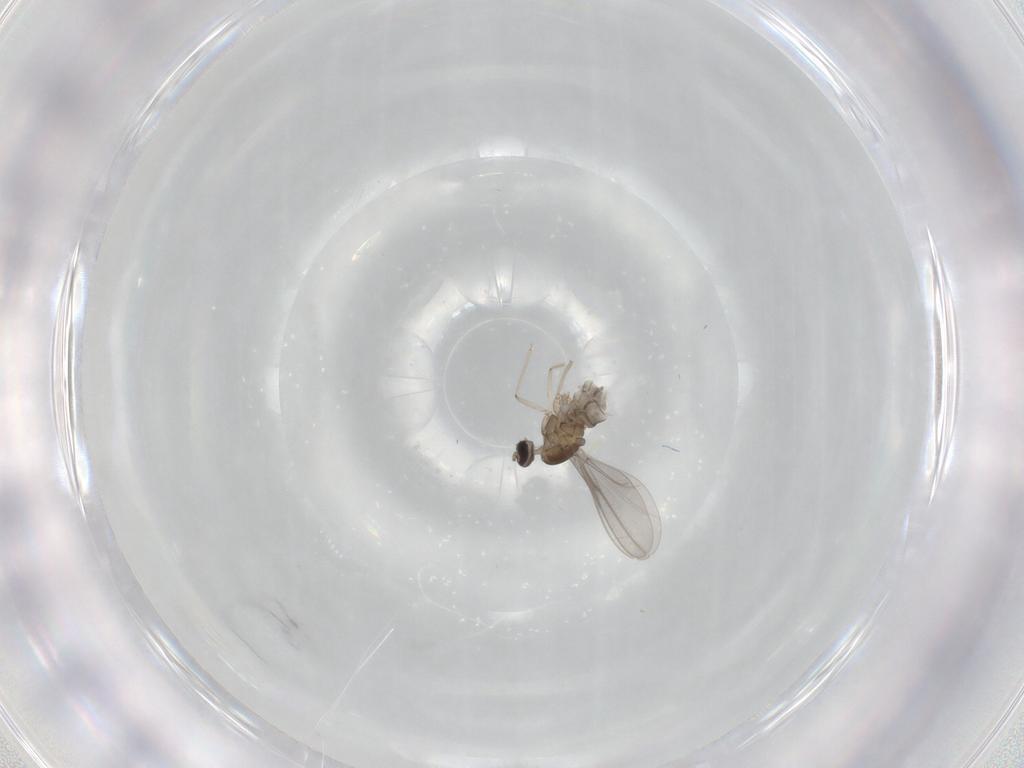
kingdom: Animalia
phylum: Arthropoda
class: Insecta
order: Diptera
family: Cecidomyiidae
